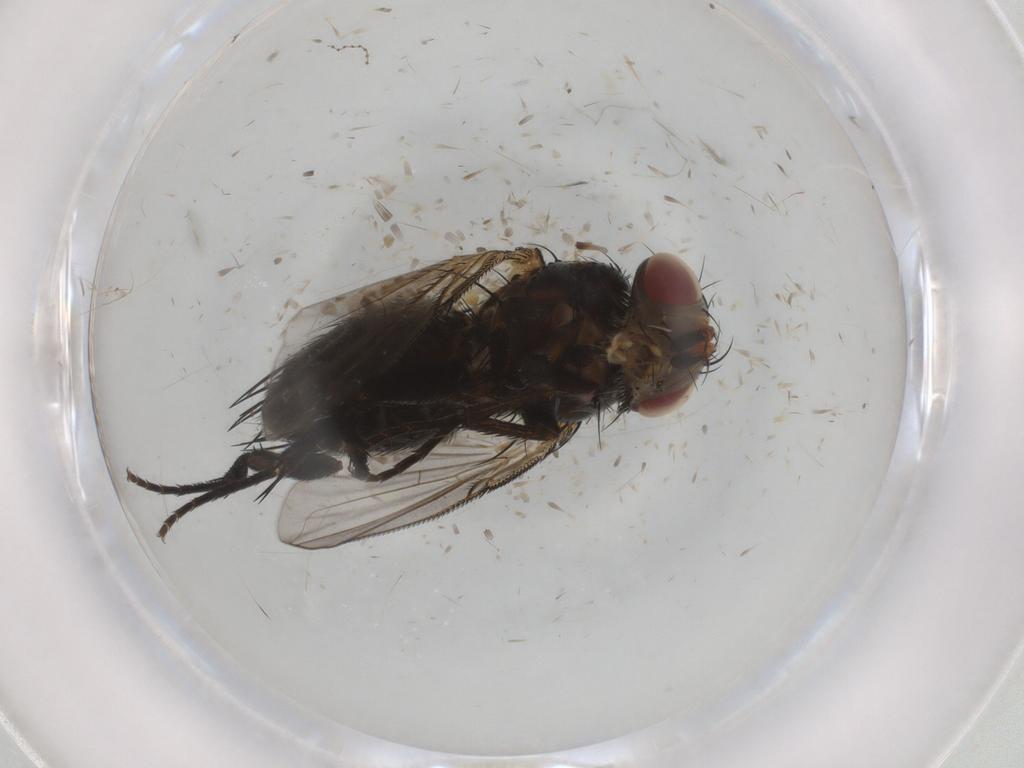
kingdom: Animalia
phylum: Arthropoda
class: Insecta
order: Diptera
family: Tachinidae
